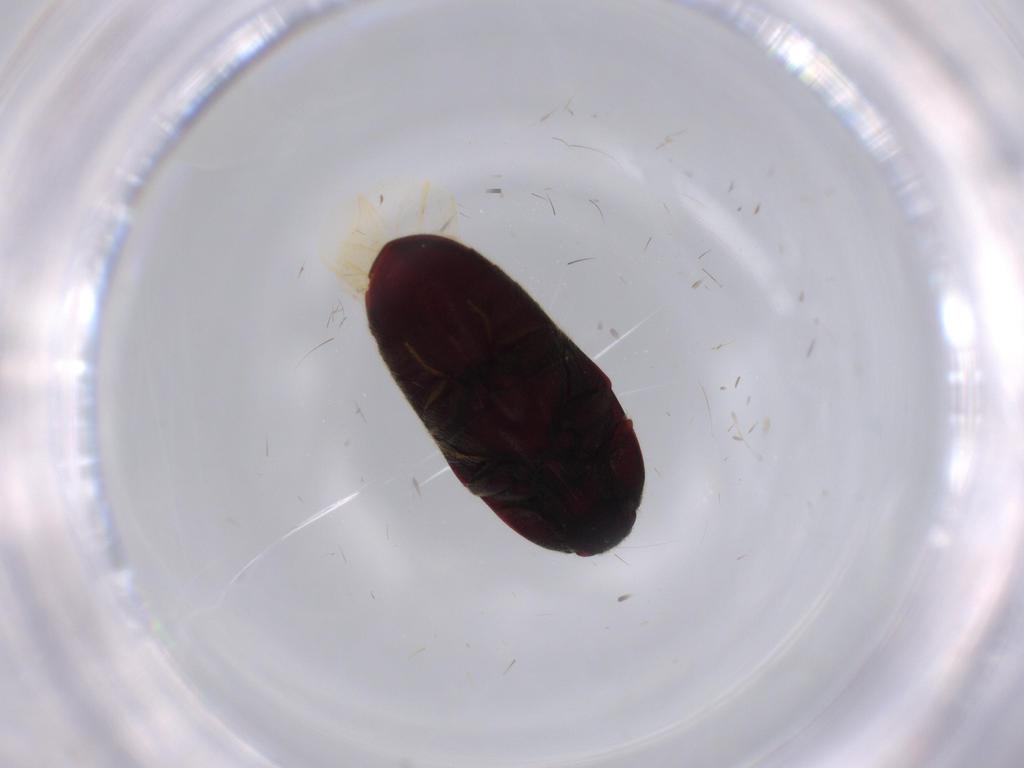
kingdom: Animalia
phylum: Arthropoda
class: Insecta
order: Coleoptera
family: Throscidae
